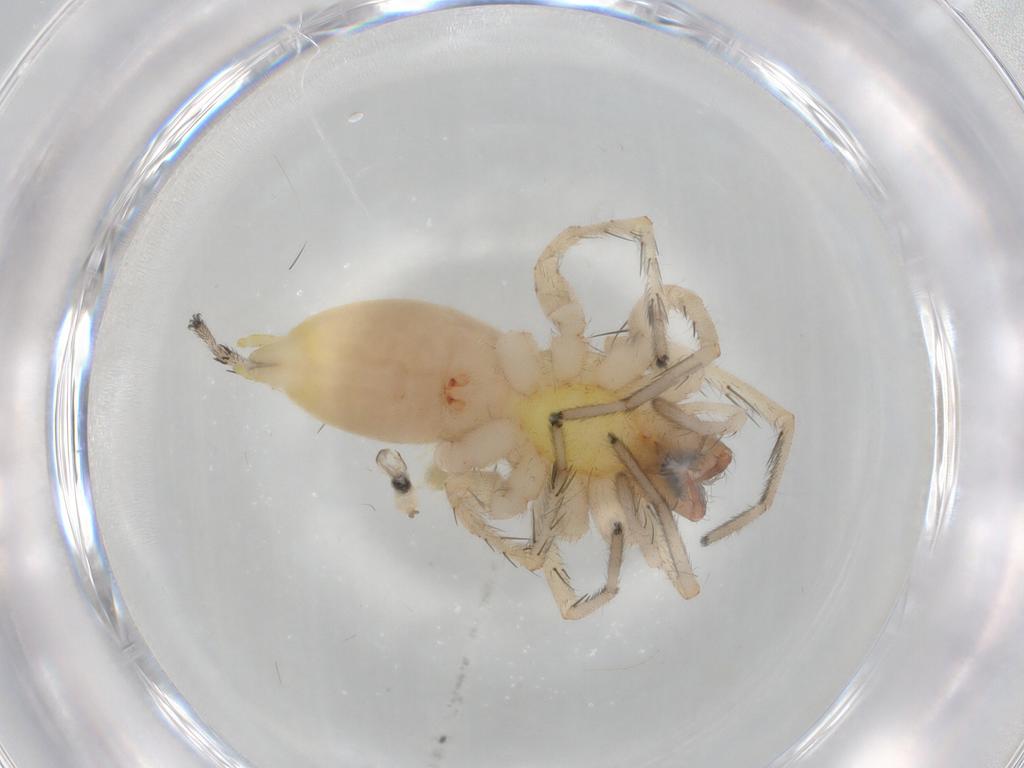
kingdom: Animalia
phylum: Arthropoda
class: Arachnida
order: Araneae
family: Anyphaenidae
